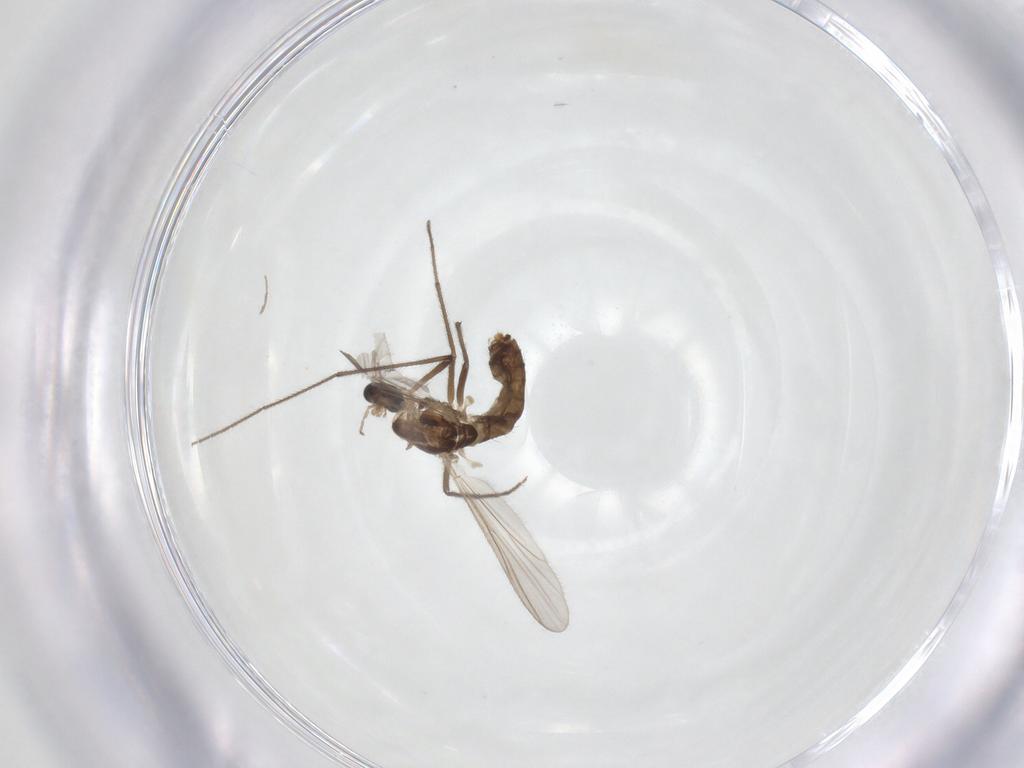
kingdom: Animalia
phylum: Arthropoda
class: Insecta
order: Diptera
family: Chironomidae
